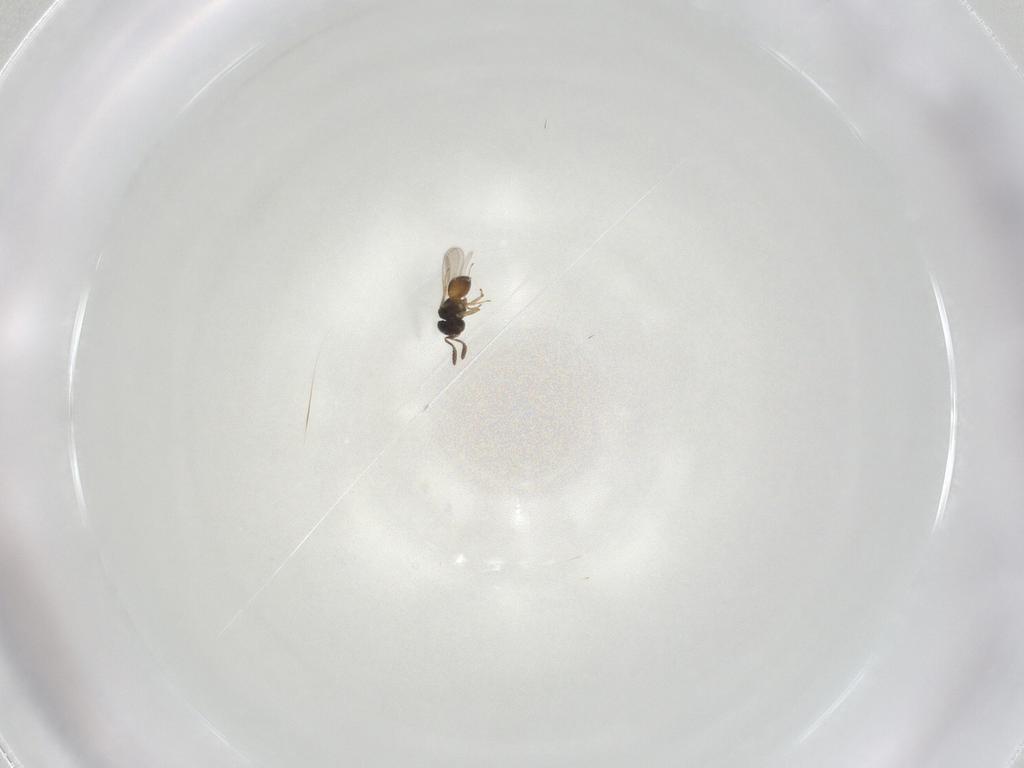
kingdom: Animalia
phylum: Arthropoda
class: Insecta
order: Hymenoptera
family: Scelionidae
